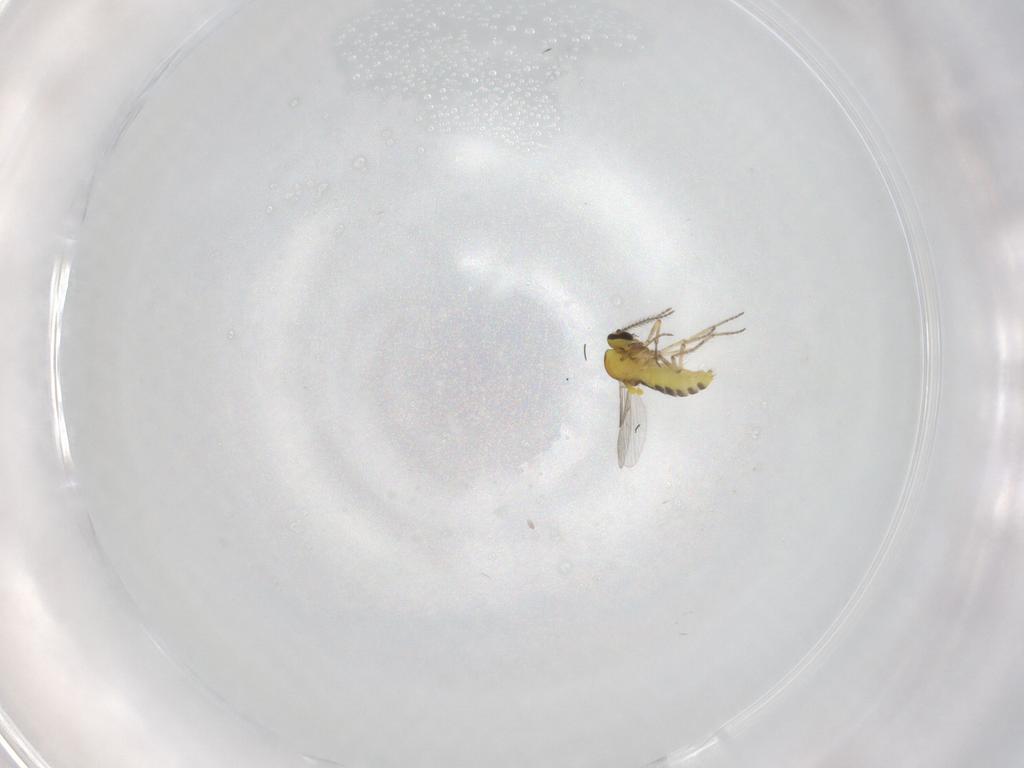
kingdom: Animalia
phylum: Arthropoda
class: Insecta
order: Diptera
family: Ceratopogonidae
